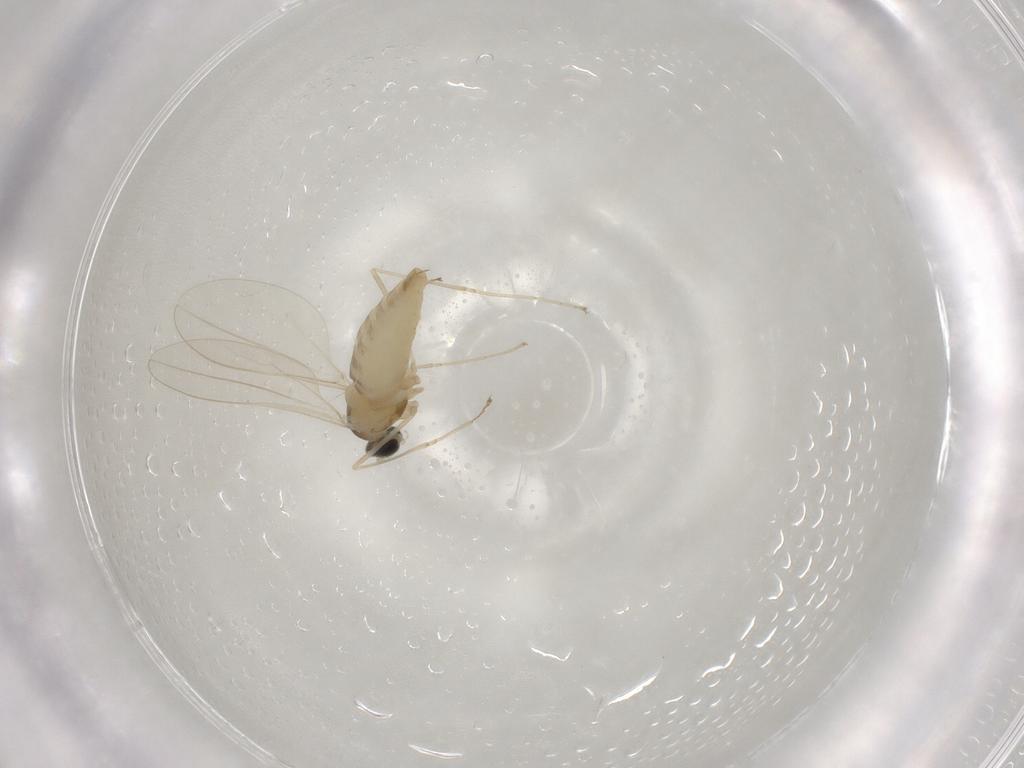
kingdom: Animalia
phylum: Arthropoda
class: Insecta
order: Diptera
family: Cecidomyiidae
